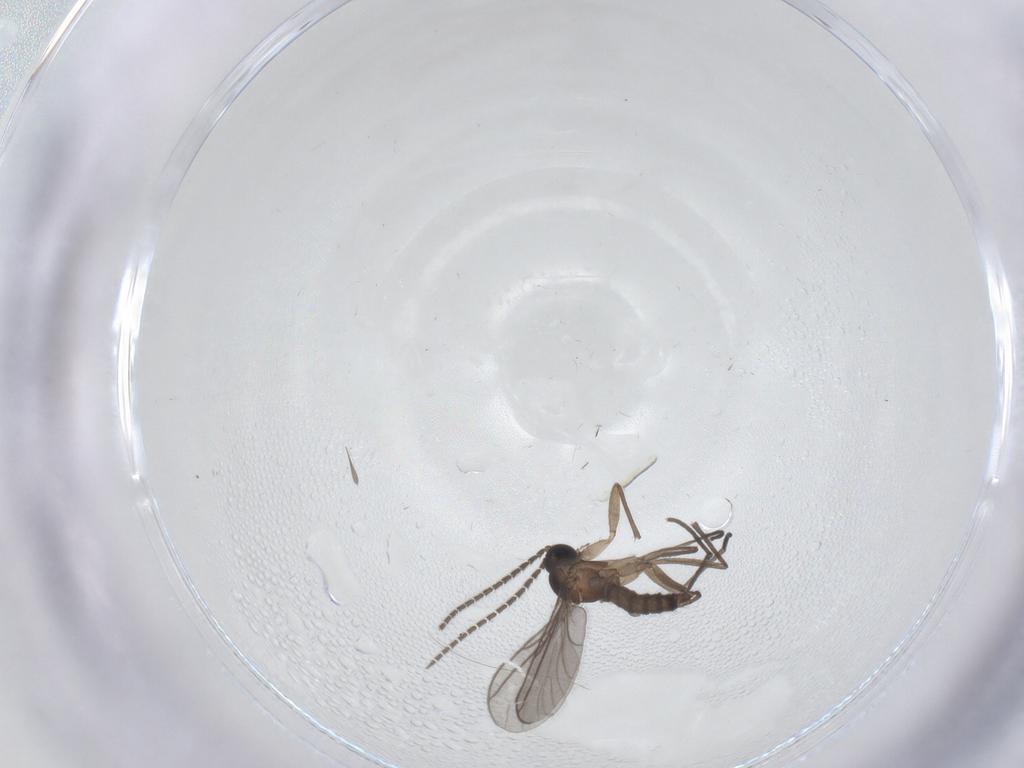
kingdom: Animalia
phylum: Arthropoda
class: Insecta
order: Diptera
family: Sciaridae
